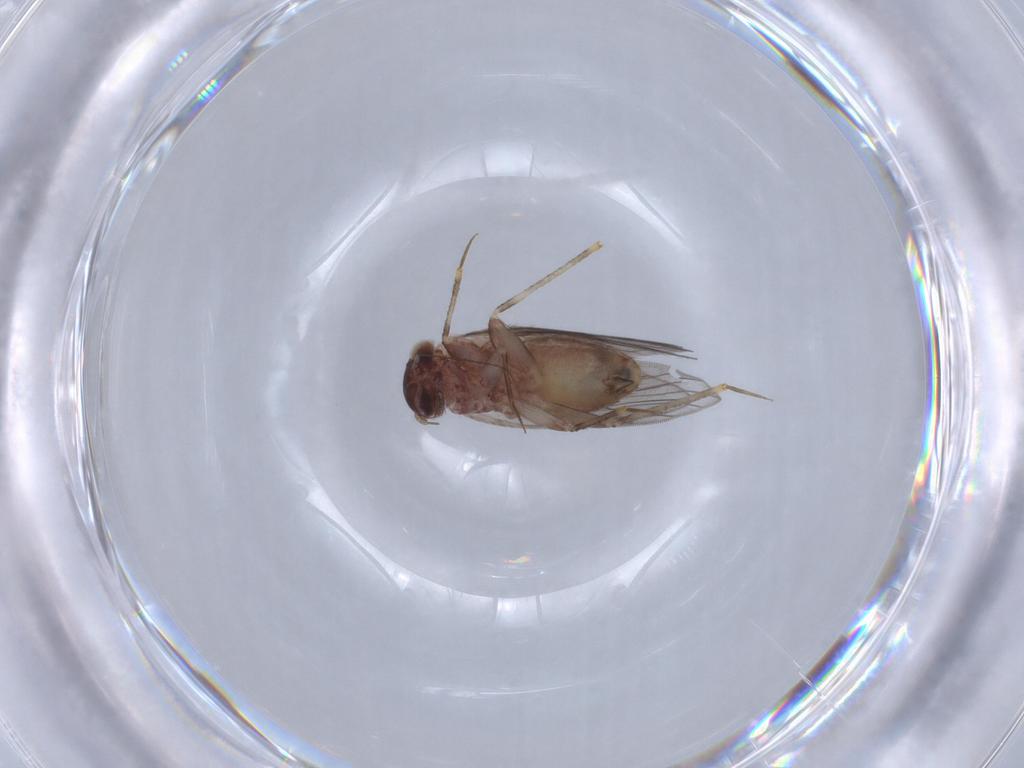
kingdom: Animalia
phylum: Arthropoda
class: Insecta
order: Psocodea
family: Lepidopsocidae
